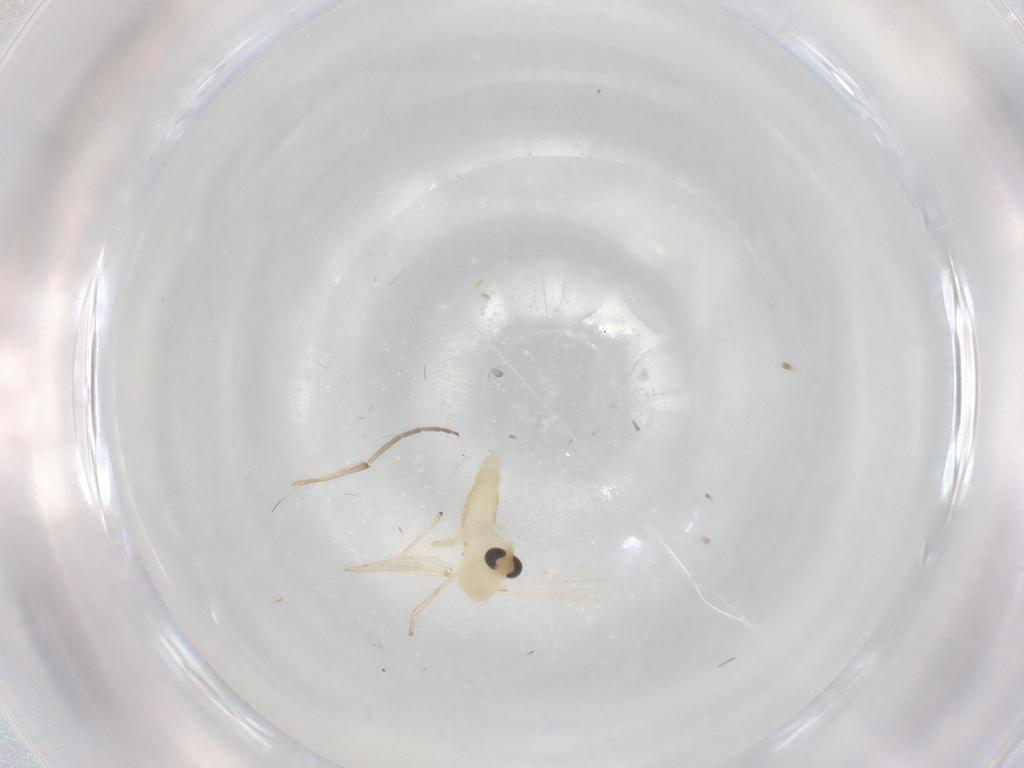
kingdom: Animalia
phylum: Arthropoda
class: Insecta
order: Diptera
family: Chironomidae
